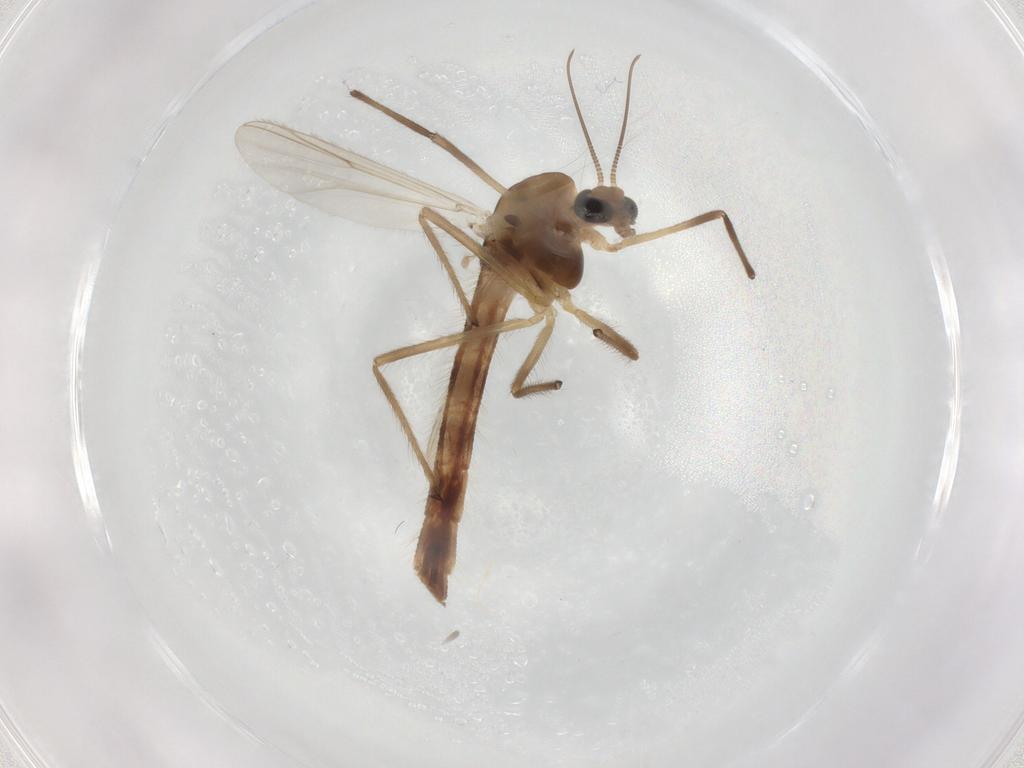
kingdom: Animalia
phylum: Arthropoda
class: Insecta
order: Diptera
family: Chironomidae
